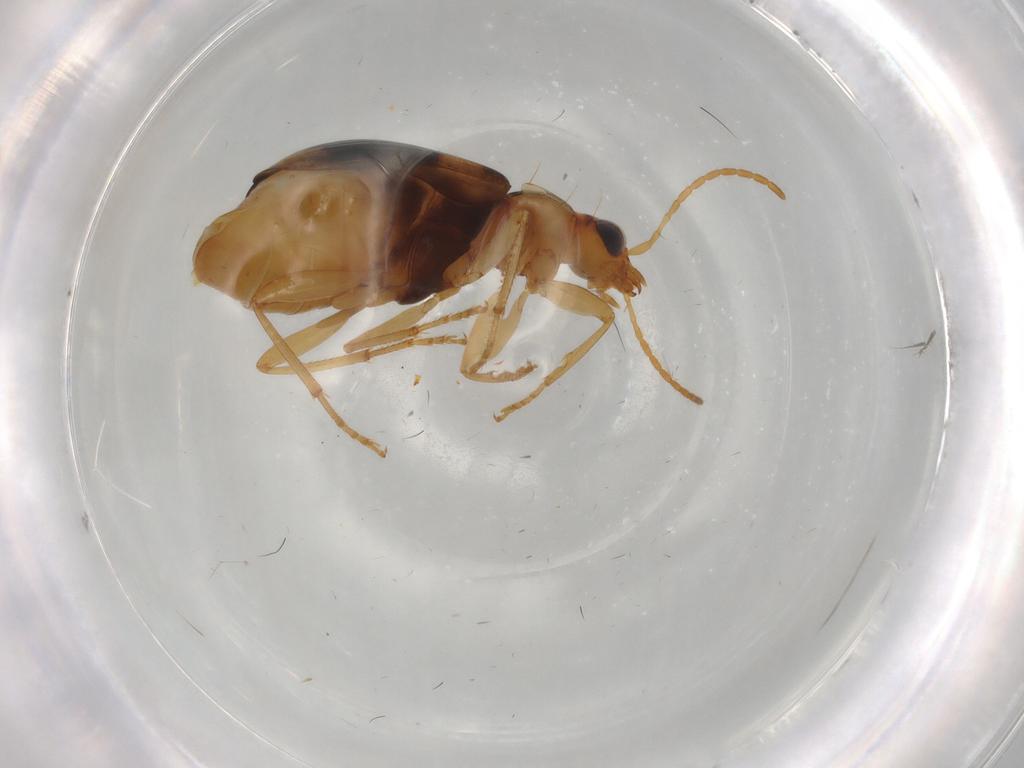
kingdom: Animalia
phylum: Arthropoda
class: Insecta
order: Coleoptera
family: Carabidae
